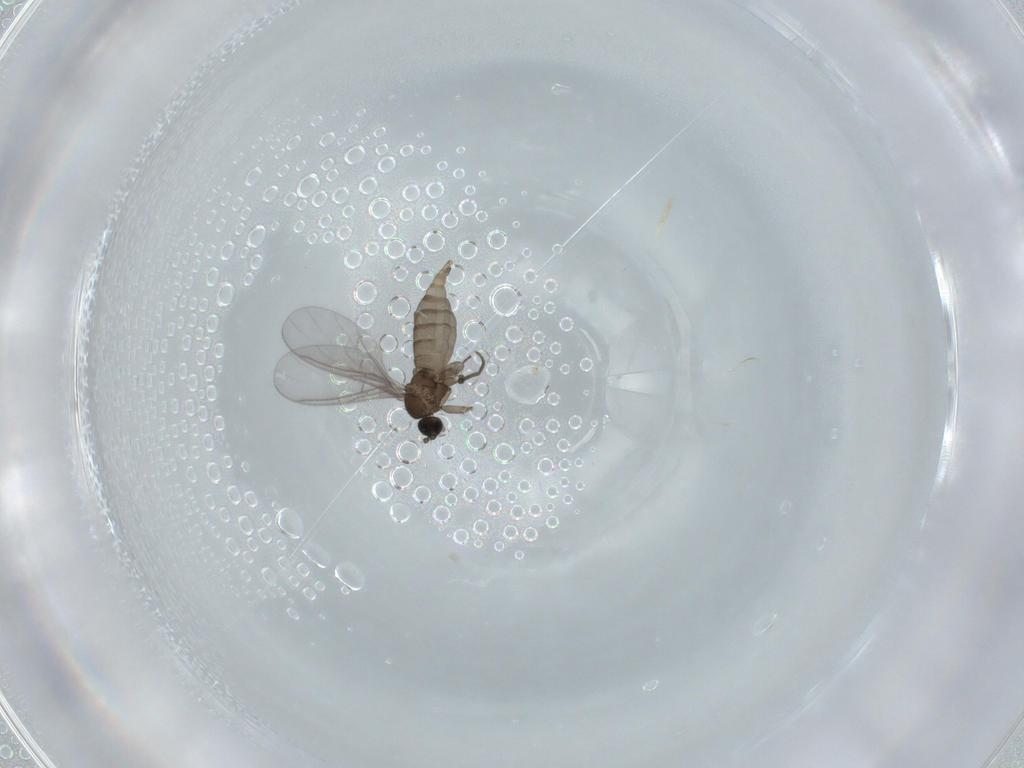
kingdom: Animalia
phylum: Arthropoda
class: Insecta
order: Diptera
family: Sciaridae
